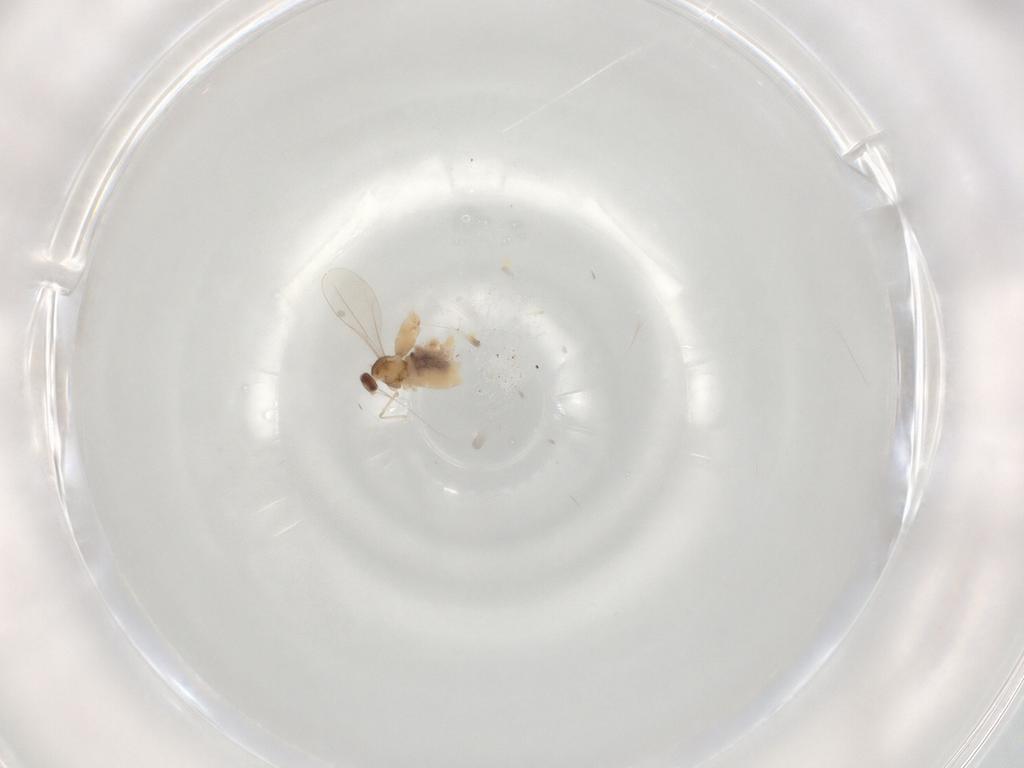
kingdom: Animalia
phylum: Arthropoda
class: Insecta
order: Diptera
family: Cecidomyiidae
